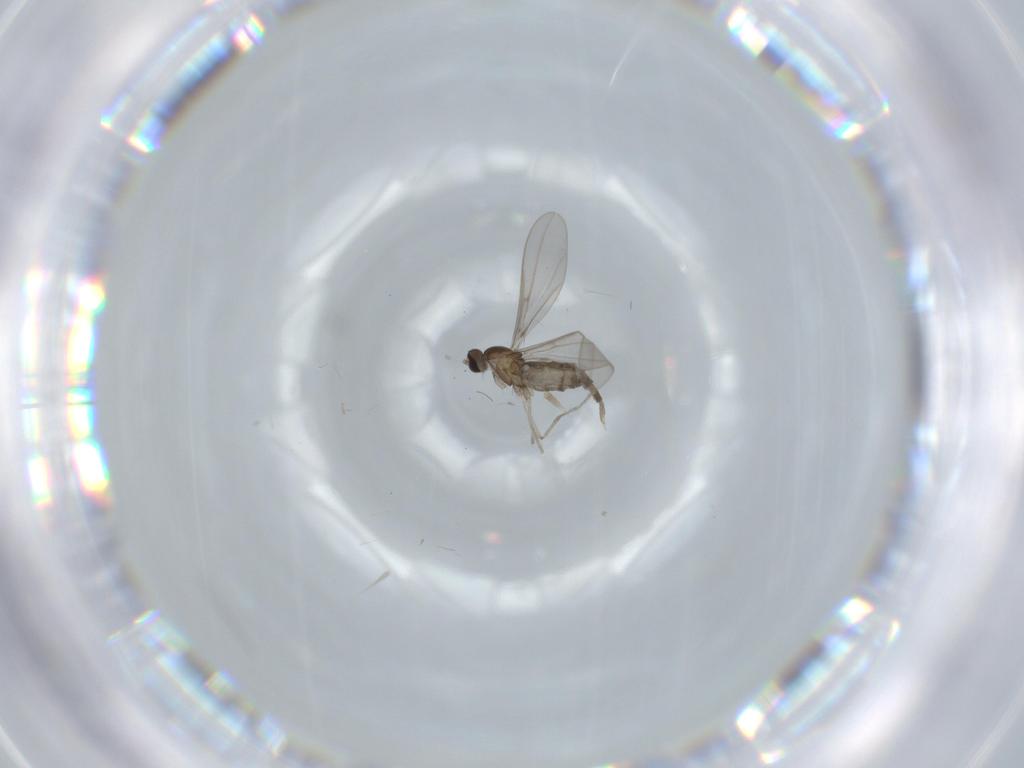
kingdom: Animalia
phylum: Arthropoda
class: Insecta
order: Diptera
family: Cecidomyiidae
